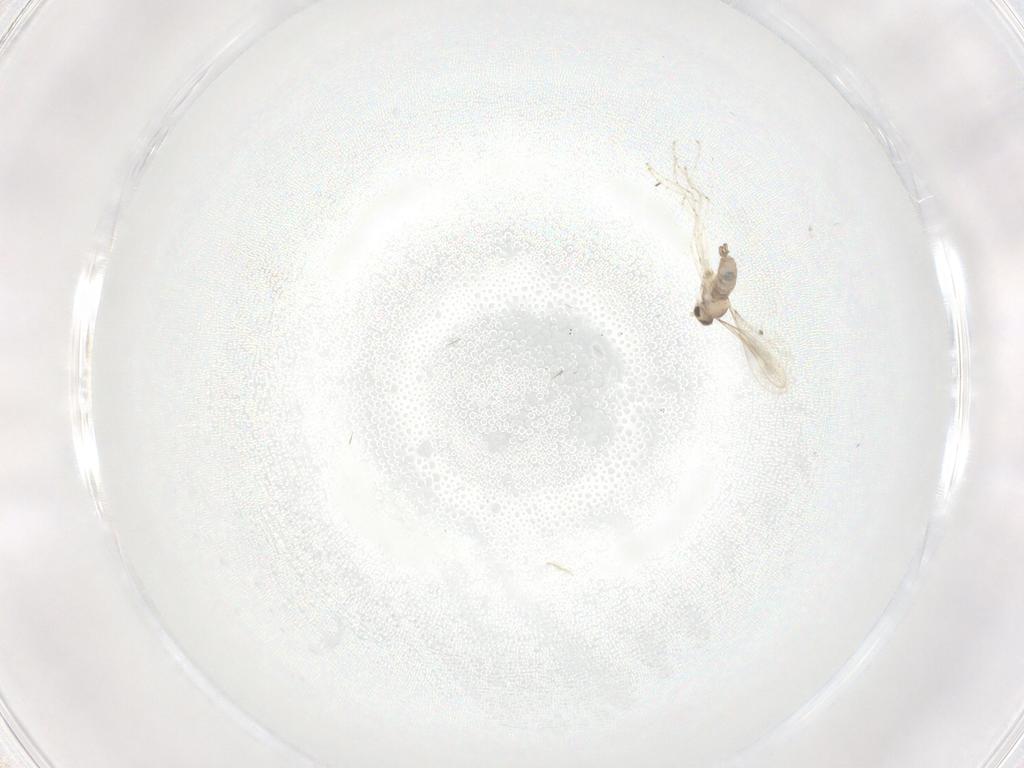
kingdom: Animalia
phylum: Arthropoda
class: Insecta
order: Diptera
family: Cecidomyiidae
